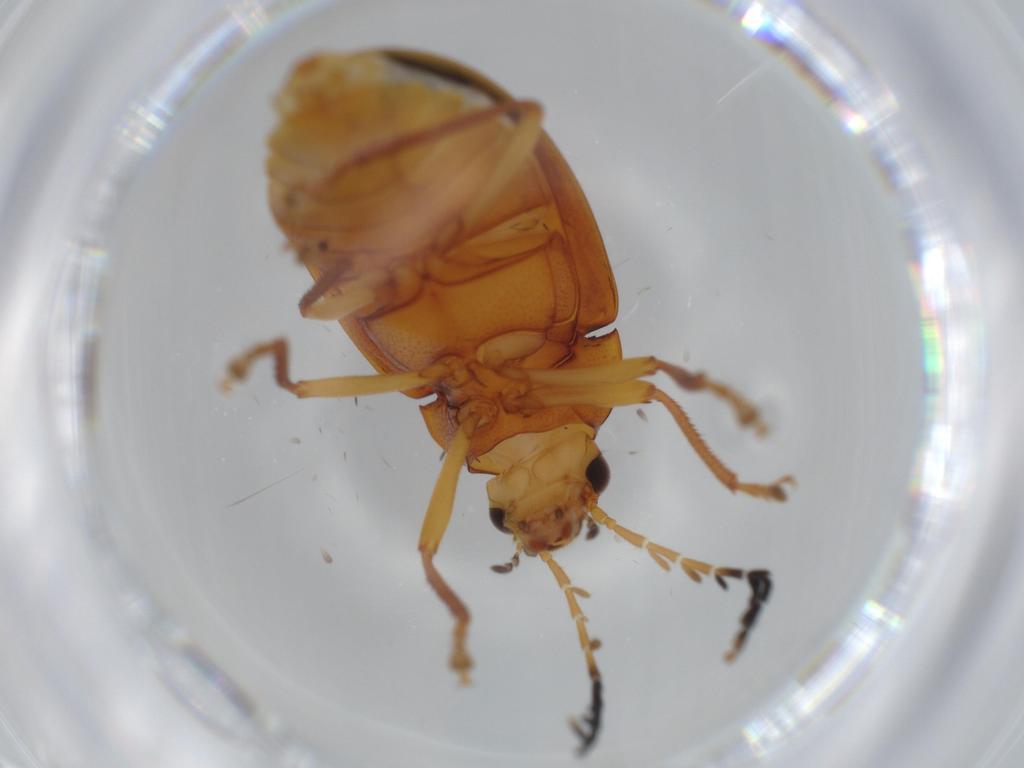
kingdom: Animalia
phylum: Arthropoda
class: Insecta
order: Coleoptera
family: Ptilodactylidae
